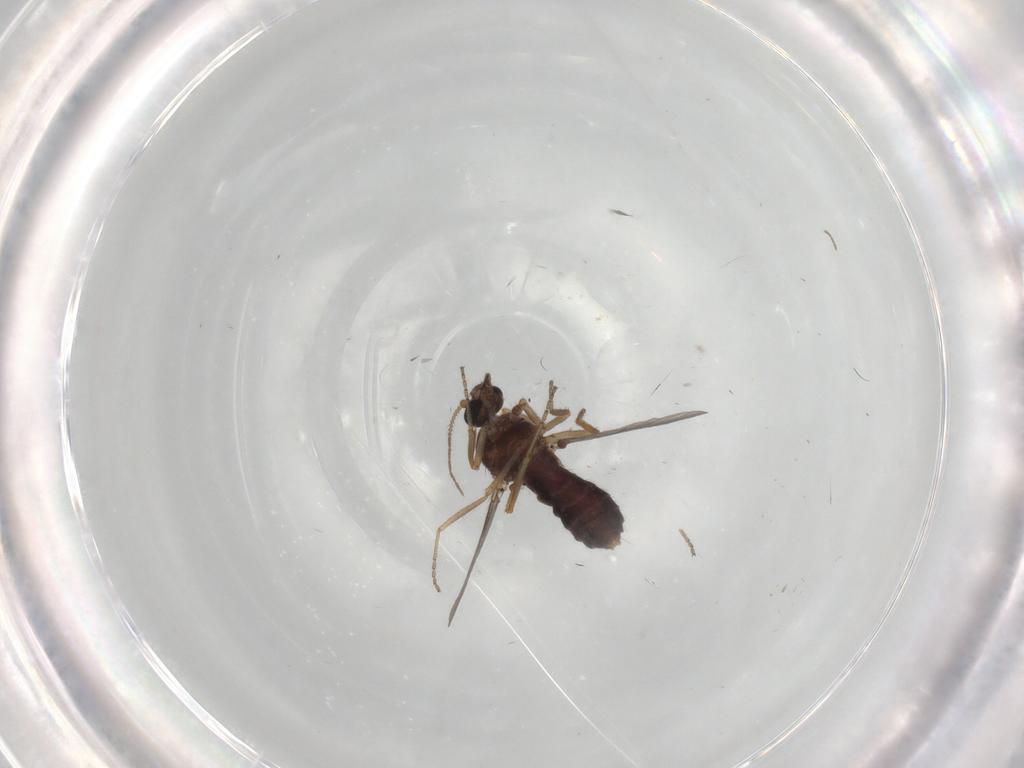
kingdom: Animalia
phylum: Arthropoda
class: Insecta
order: Diptera
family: Ceratopogonidae
